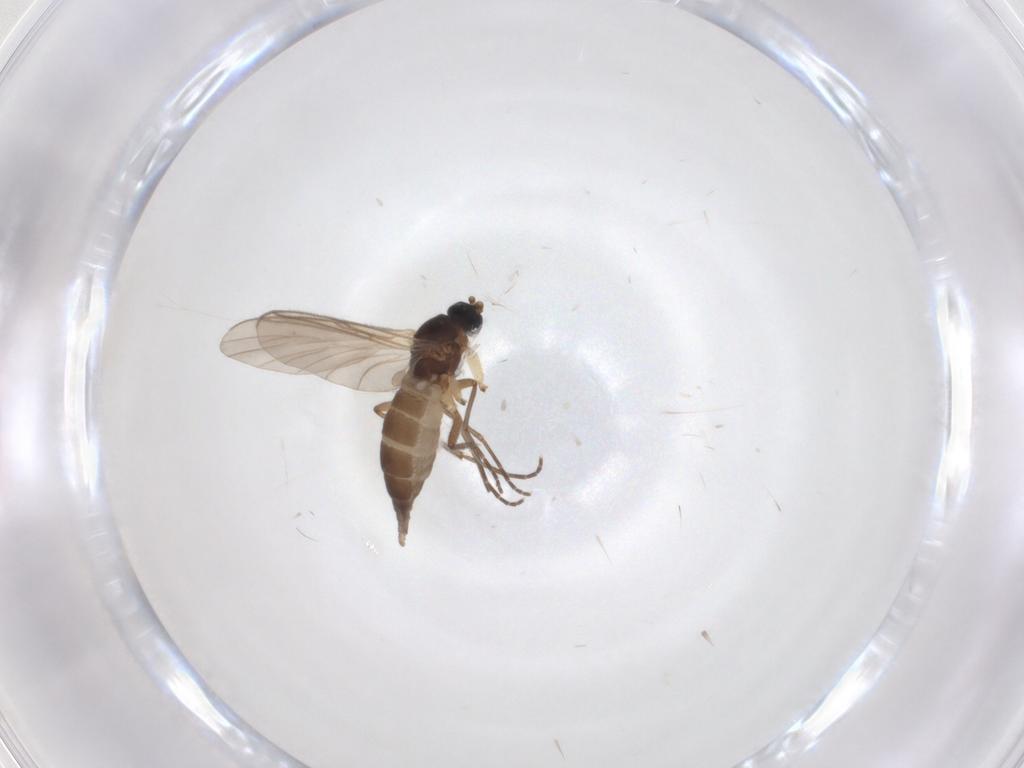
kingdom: Animalia
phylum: Arthropoda
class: Insecta
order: Diptera
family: Sciaridae
